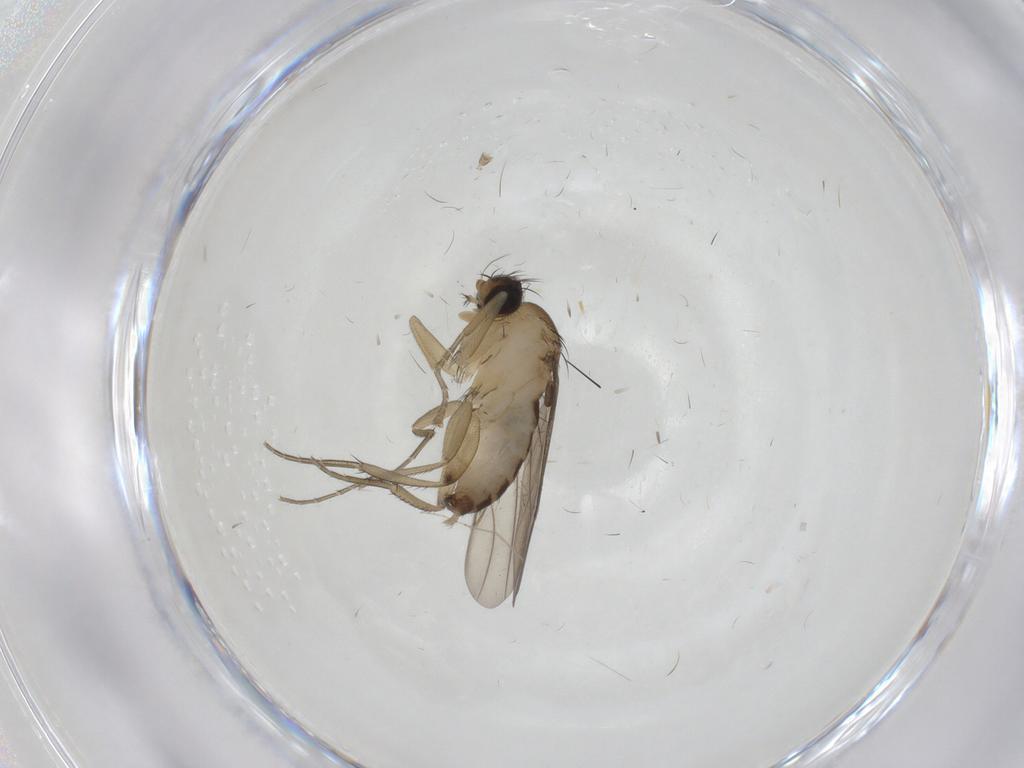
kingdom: Animalia
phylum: Arthropoda
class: Insecta
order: Diptera
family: Phoridae
